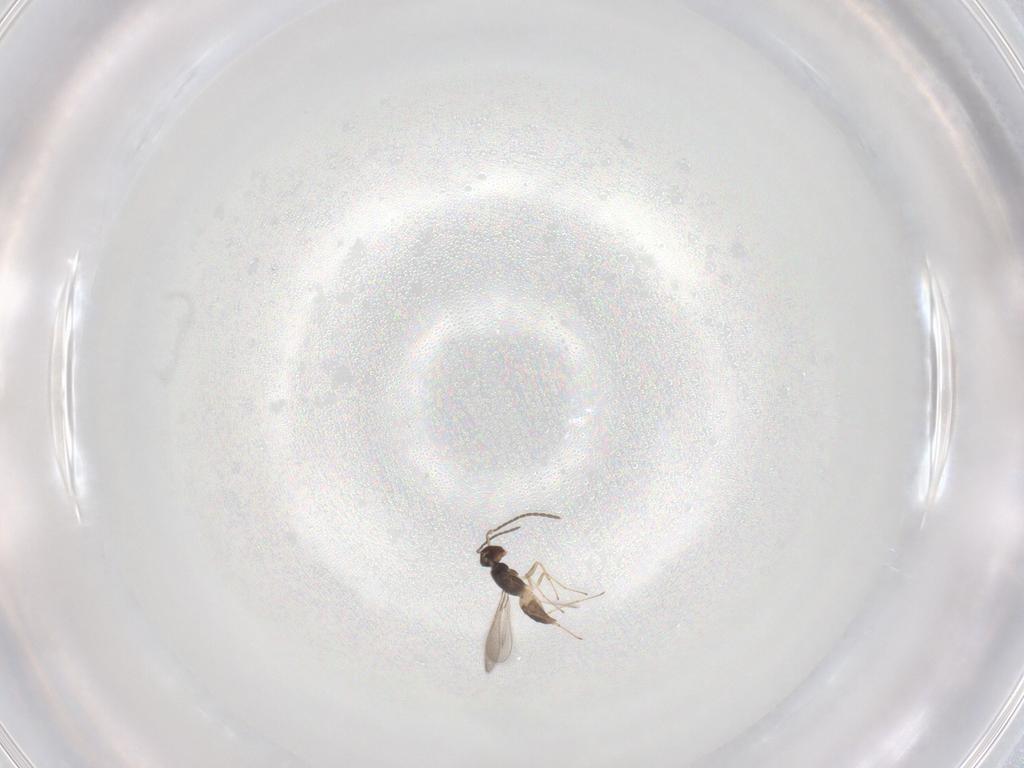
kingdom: Animalia
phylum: Arthropoda
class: Insecta
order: Hymenoptera
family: Mymaridae
